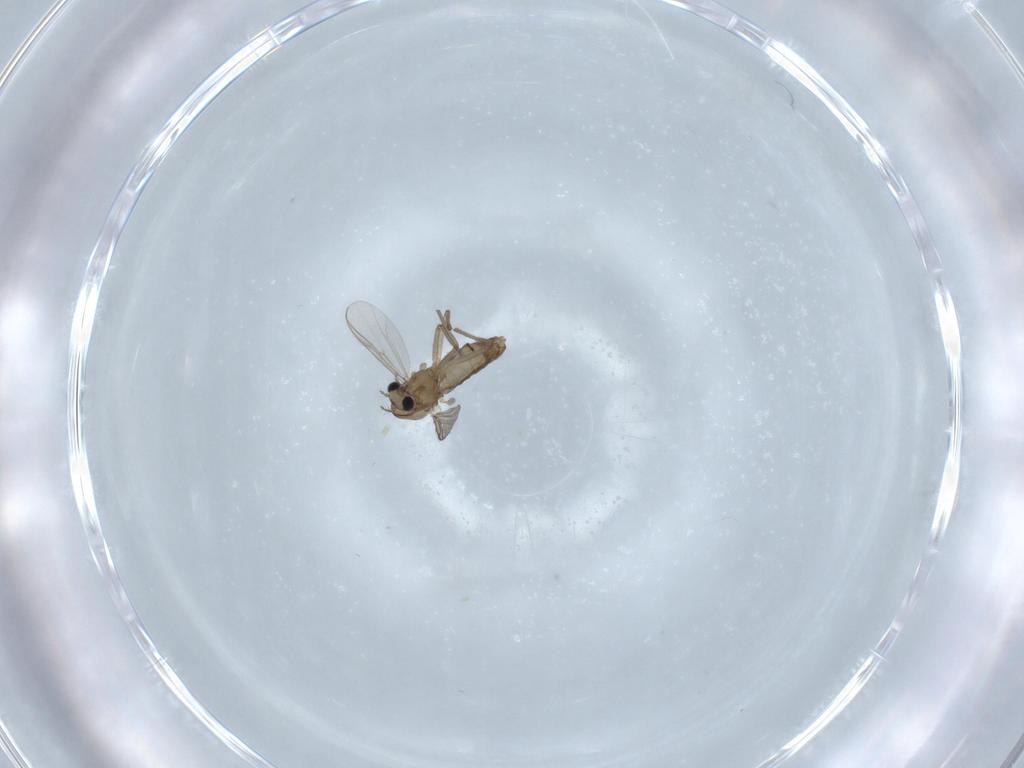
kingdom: Animalia
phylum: Arthropoda
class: Insecta
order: Diptera
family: Chironomidae
